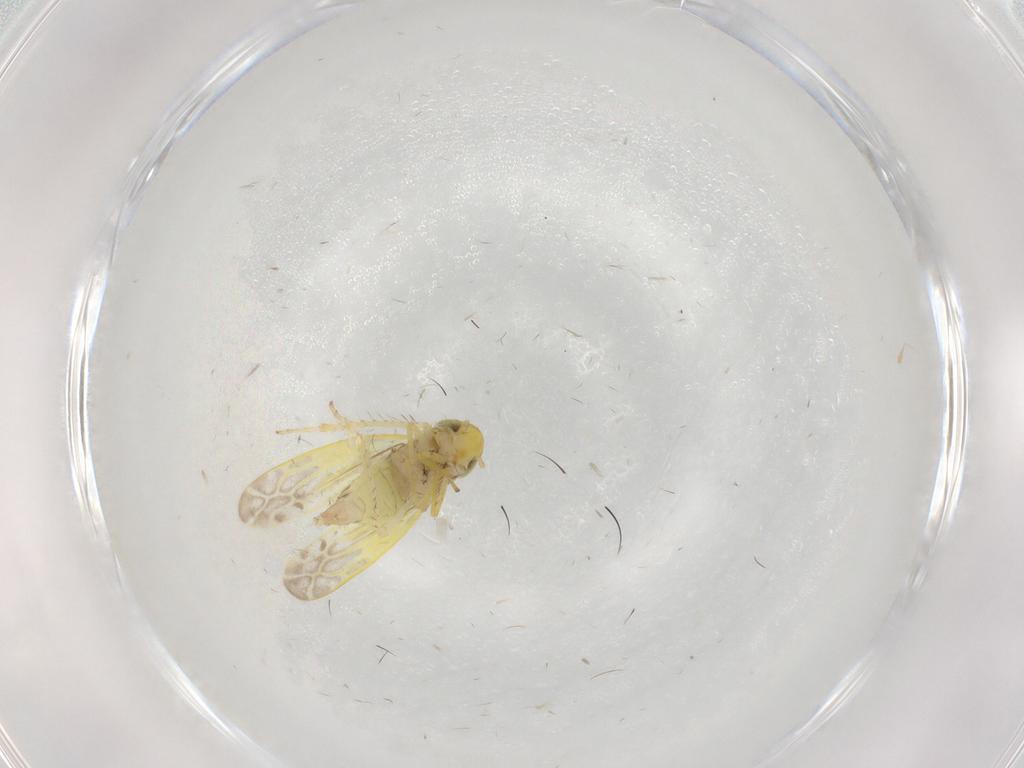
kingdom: Animalia
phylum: Arthropoda
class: Insecta
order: Hemiptera
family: Cicadellidae
